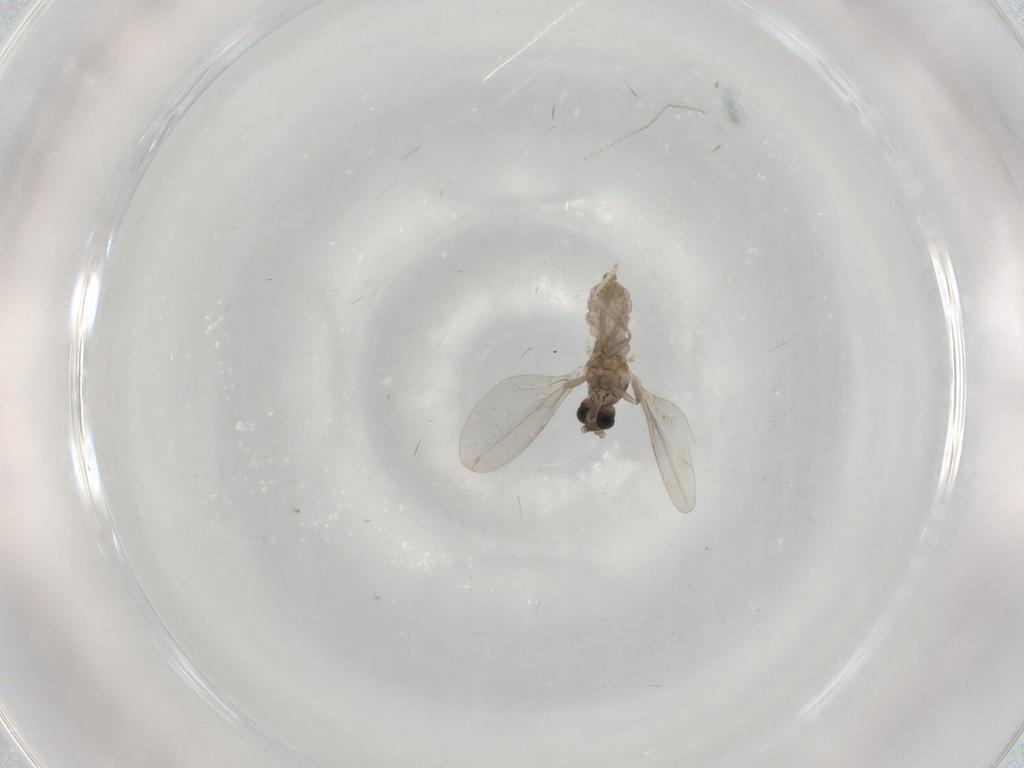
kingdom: Animalia
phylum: Arthropoda
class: Insecta
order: Diptera
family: Cecidomyiidae
